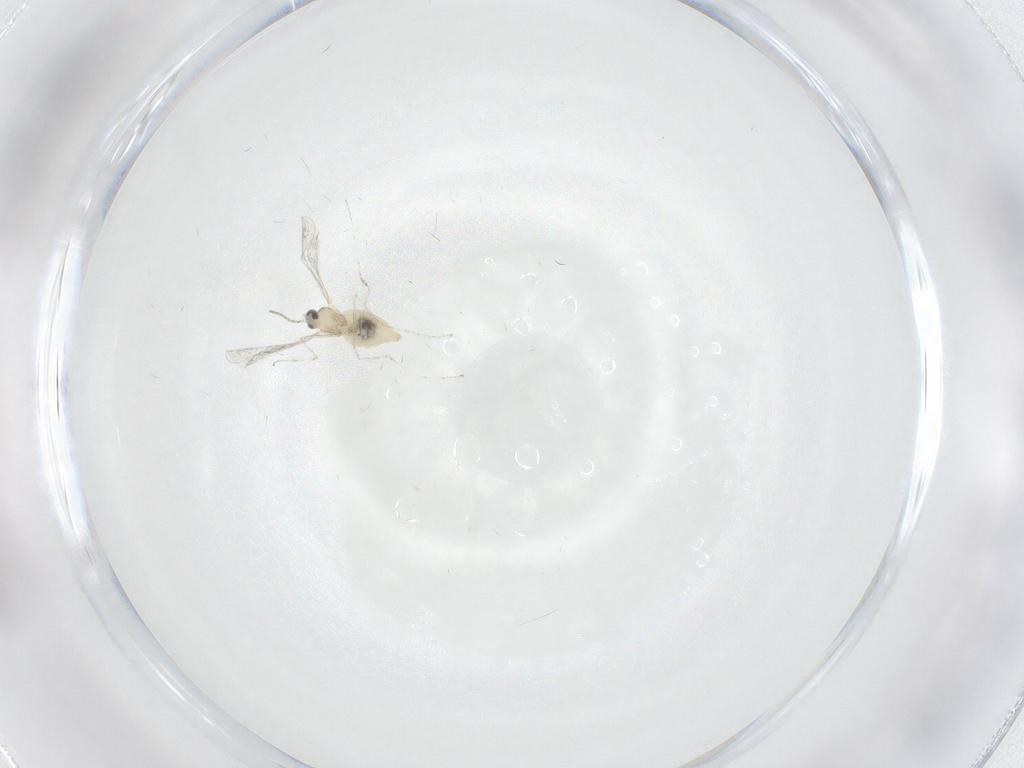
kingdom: Animalia
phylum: Arthropoda
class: Insecta
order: Diptera
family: Cecidomyiidae
